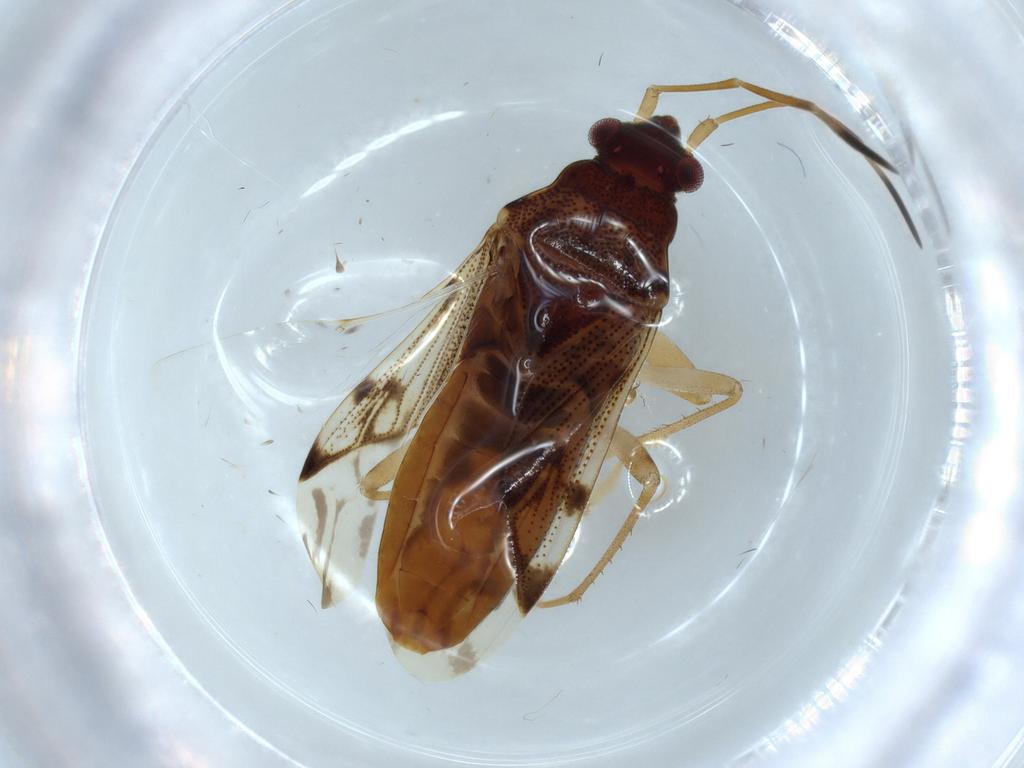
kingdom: Animalia
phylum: Arthropoda
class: Insecta
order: Hemiptera
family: Rhyparochromidae
